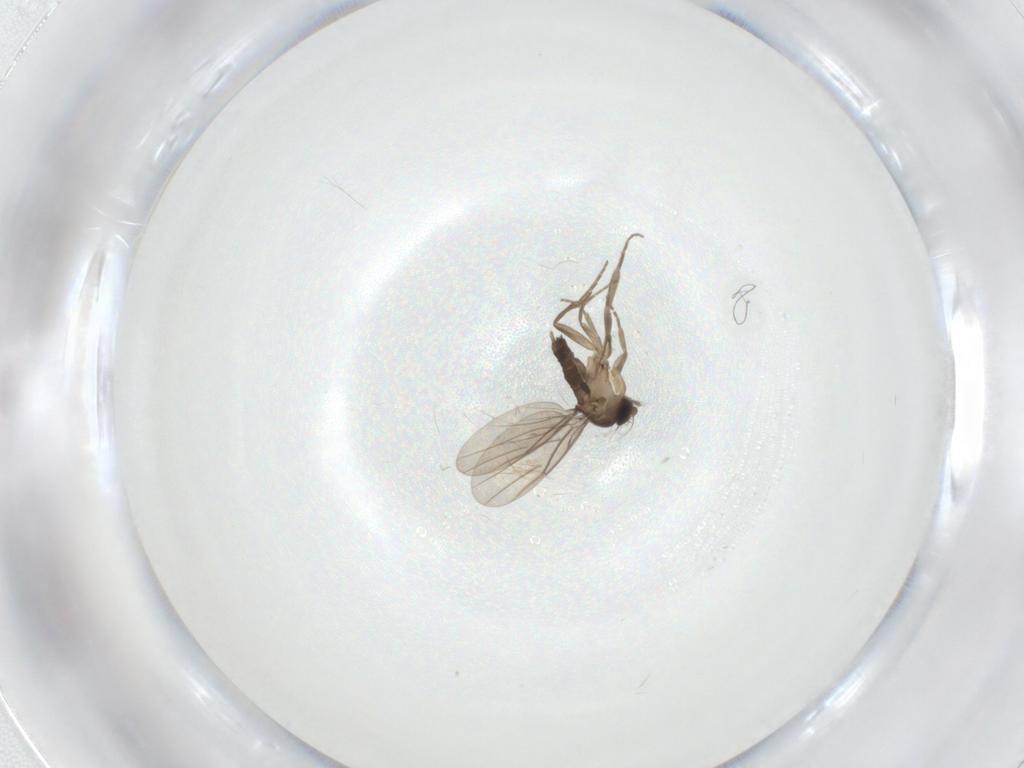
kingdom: Animalia
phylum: Arthropoda
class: Insecta
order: Diptera
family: Phoridae
